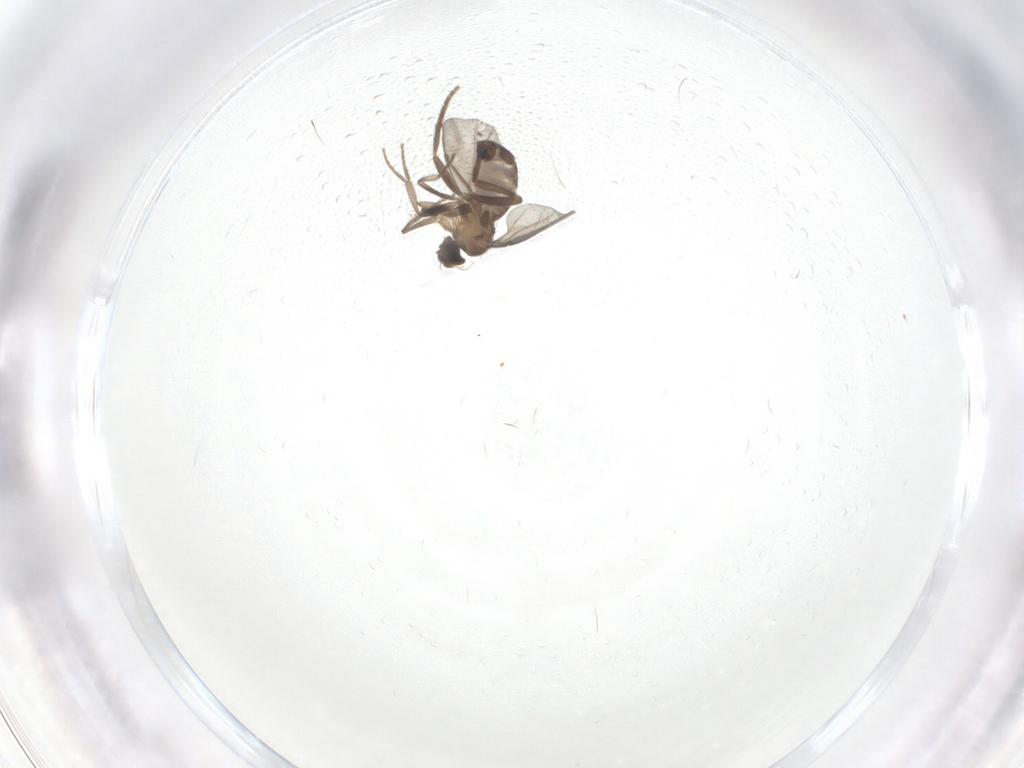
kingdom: Animalia
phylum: Arthropoda
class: Insecta
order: Diptera
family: Cecidomyiidae
